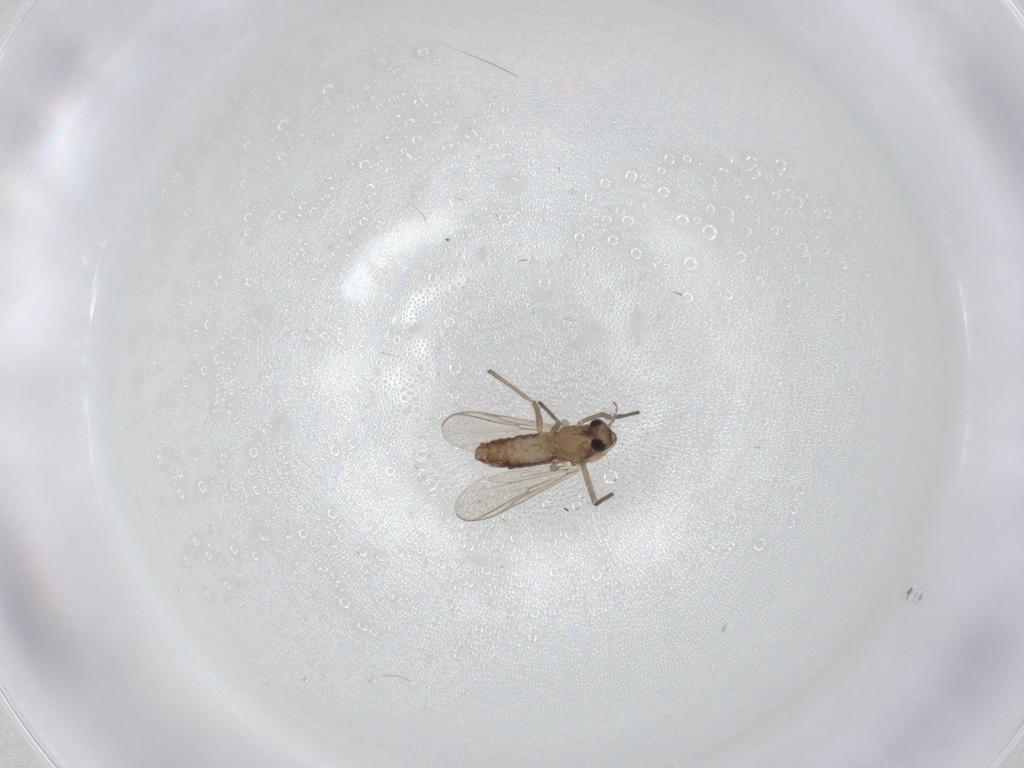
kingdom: Animalia
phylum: Arthropoda
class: Insecta
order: Diptera
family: Chironomidae
